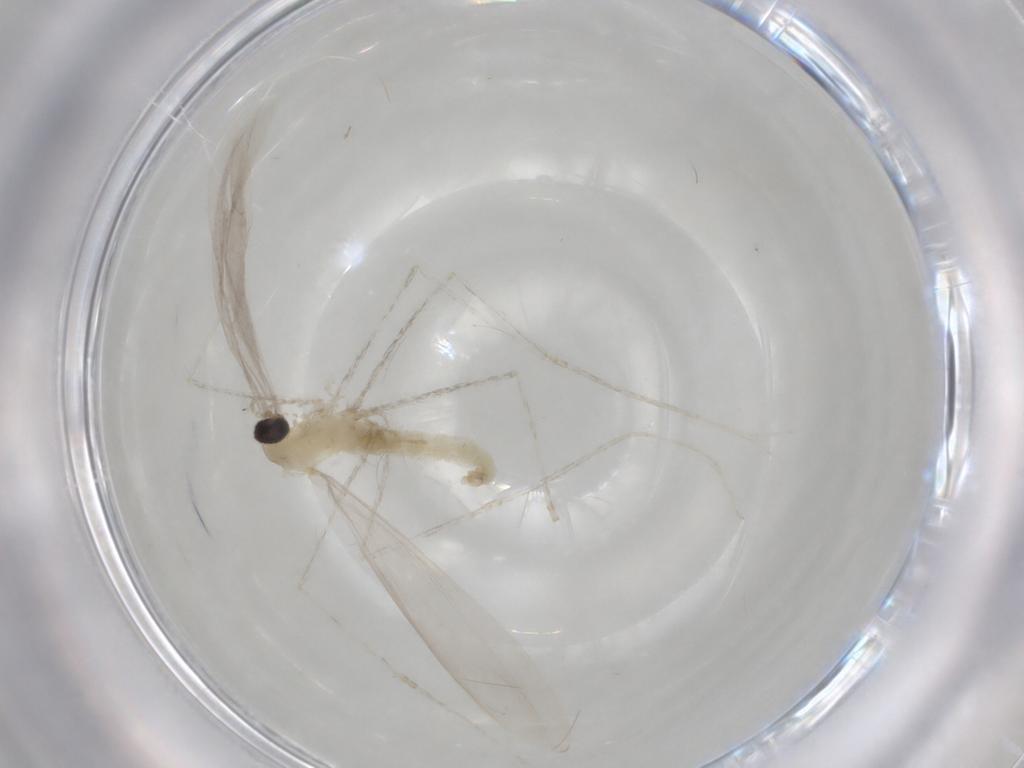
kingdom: Animalia
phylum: Arthropoda
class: Insecta
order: Diptera
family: Cecidomyiidae
